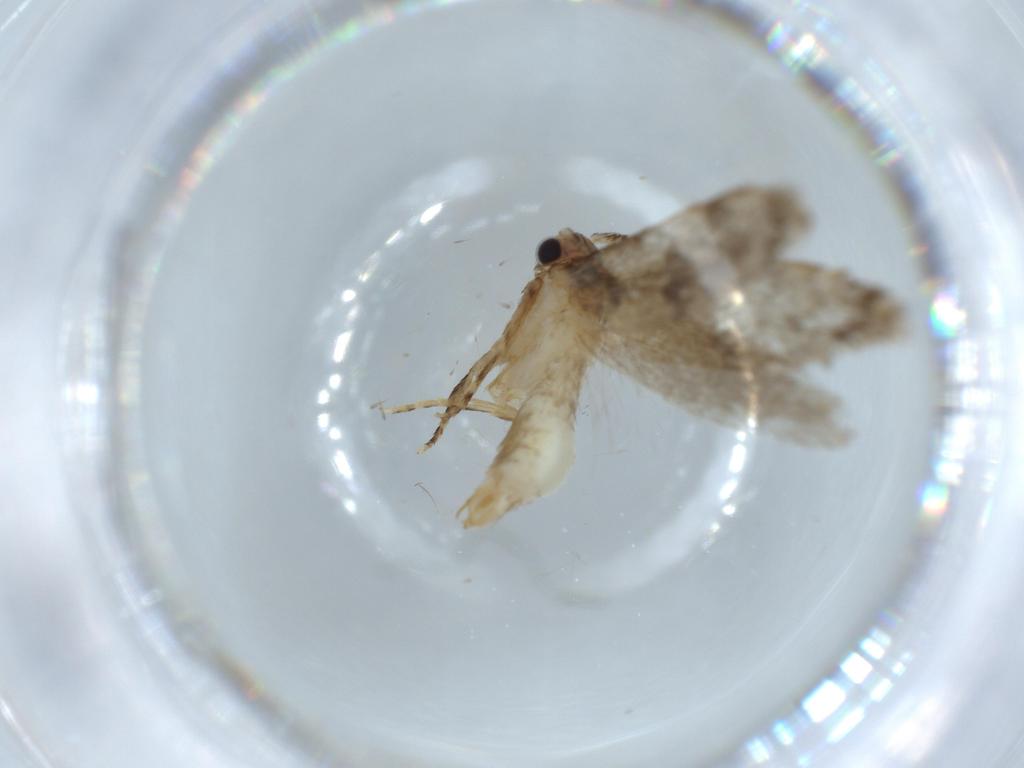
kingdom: Animalia
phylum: Arthropoda
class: Insecta
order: Lepidoptera
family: Tineidae
